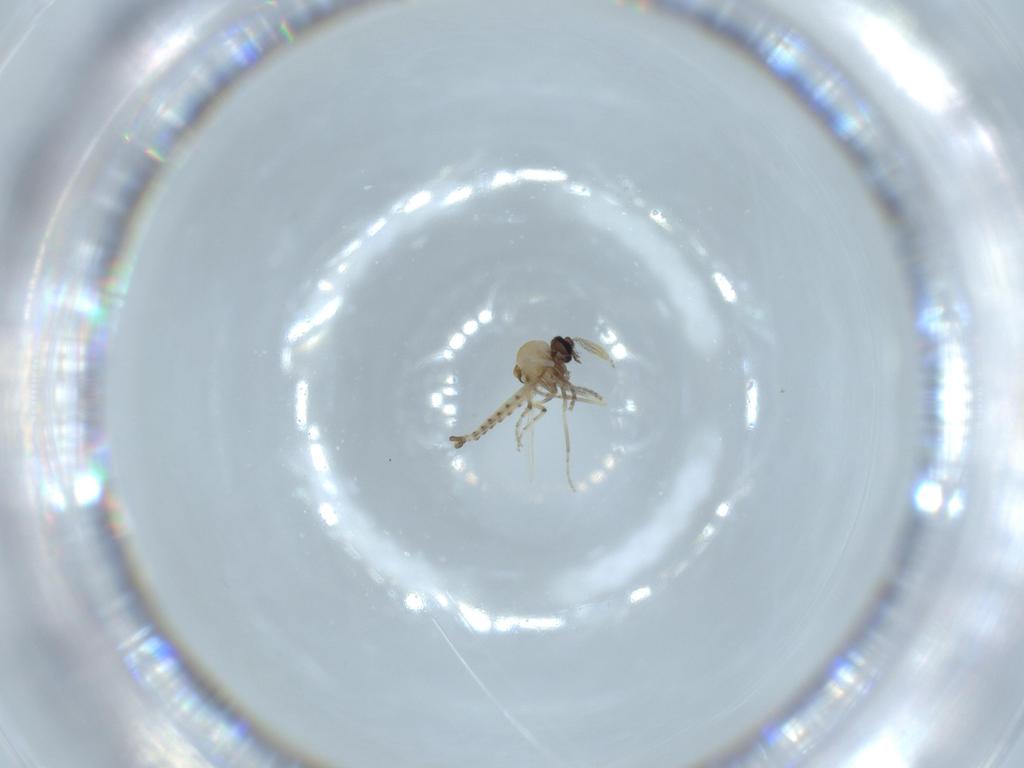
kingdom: Animalia
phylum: Arthropoda
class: Insecta
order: Diptera
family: Sciaridae
